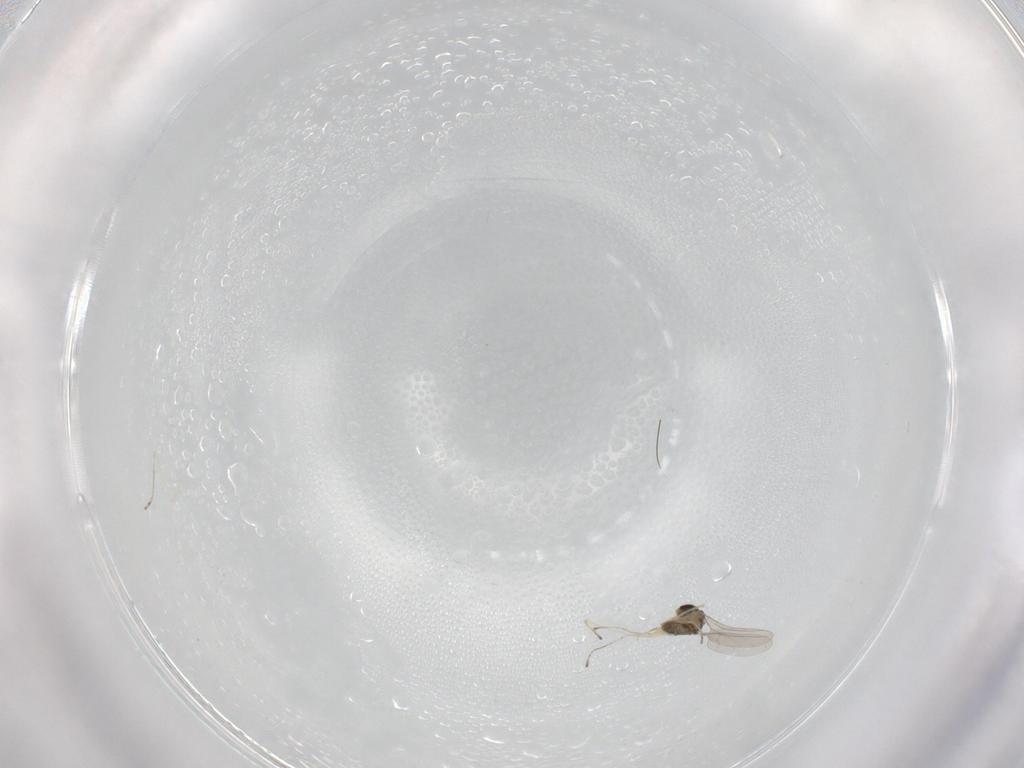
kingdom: Animalia
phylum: Arthropoda
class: Insecta
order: Diptera
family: Cecidomyiidae
